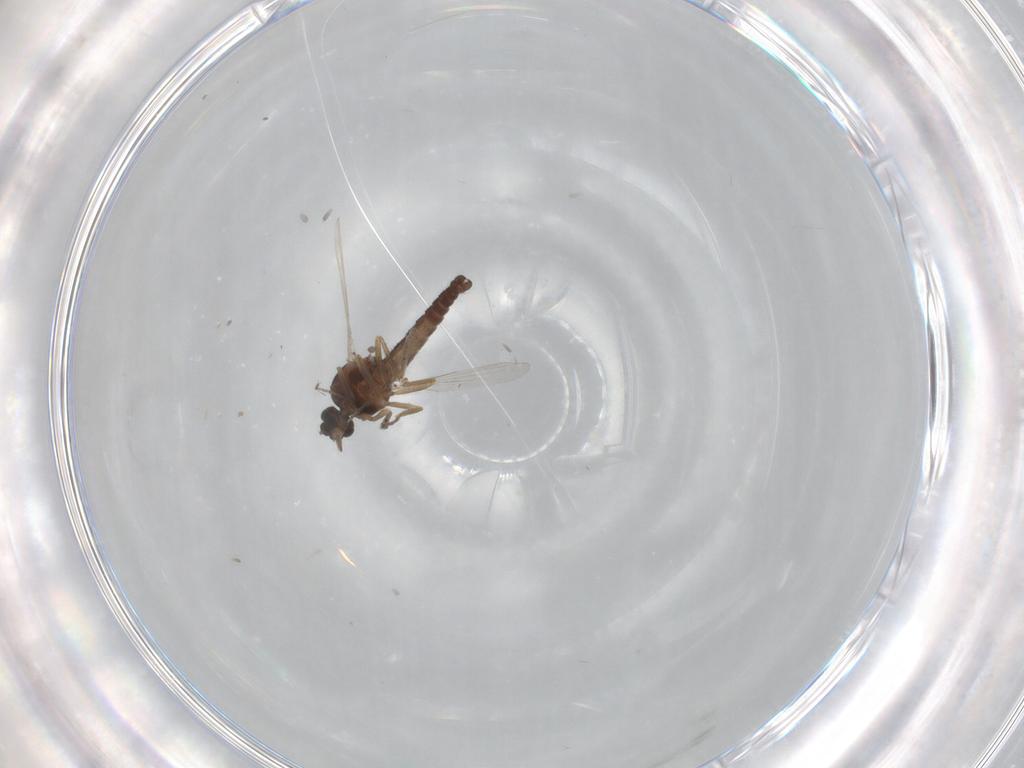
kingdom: Animalia
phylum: Arthropoda
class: Insecta
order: Diptera
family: Ceratopogonidae
